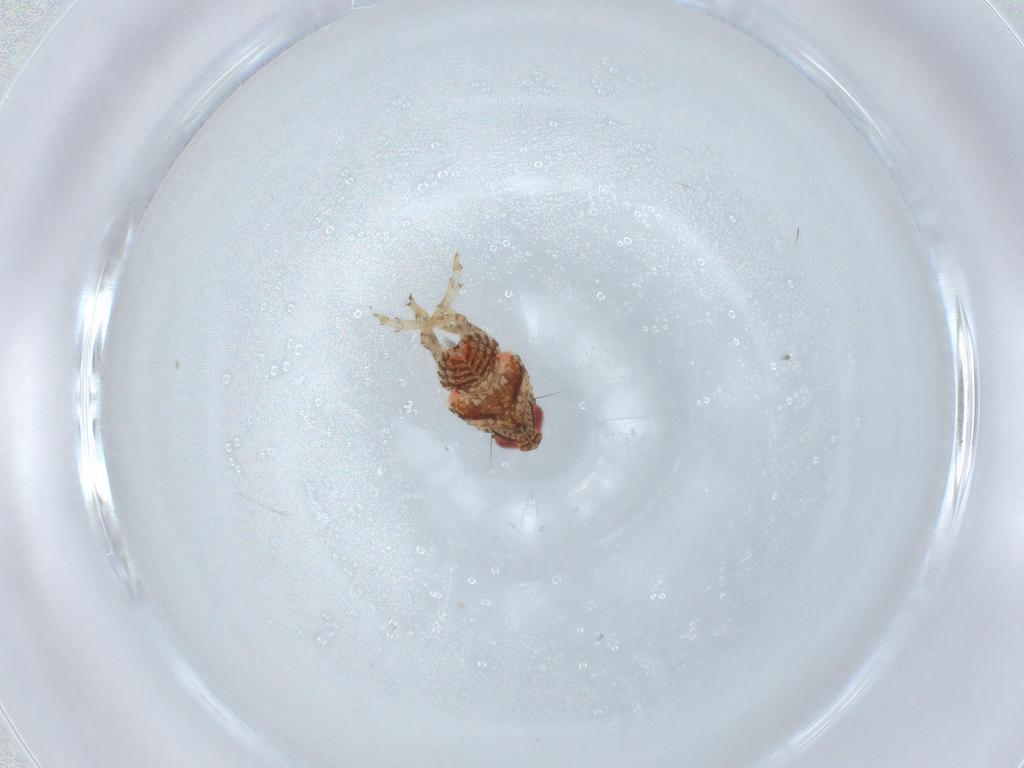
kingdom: Animalia
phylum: Arthropoda
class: Insecta
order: Hemiptera
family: Issidae
